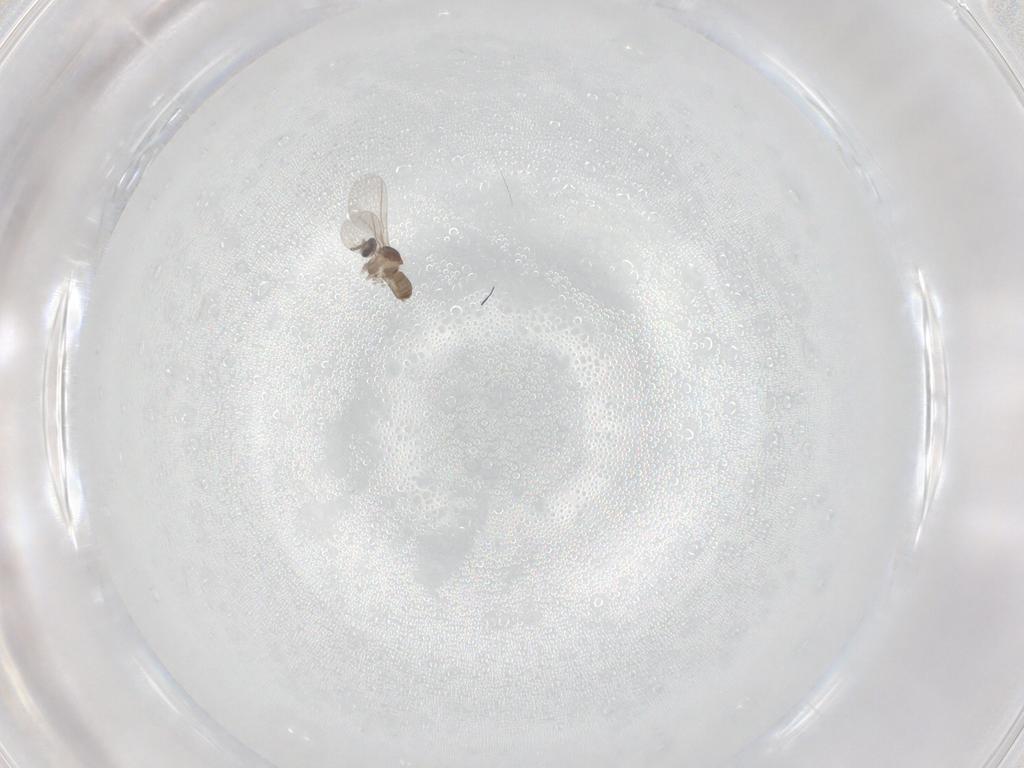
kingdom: Animalia
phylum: Arthropoda
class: Insecta
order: Diptera
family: Cecidomyiidae
